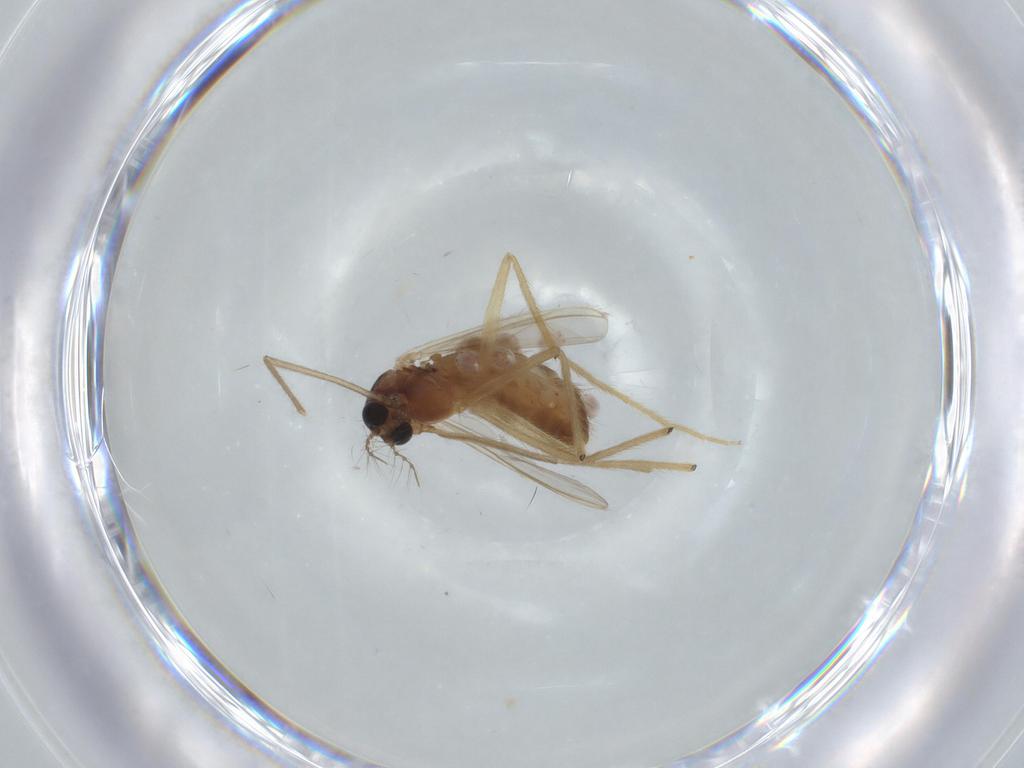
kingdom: Animalia
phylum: Arthropoda
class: Insecta
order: Diptera
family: Chironomidae
